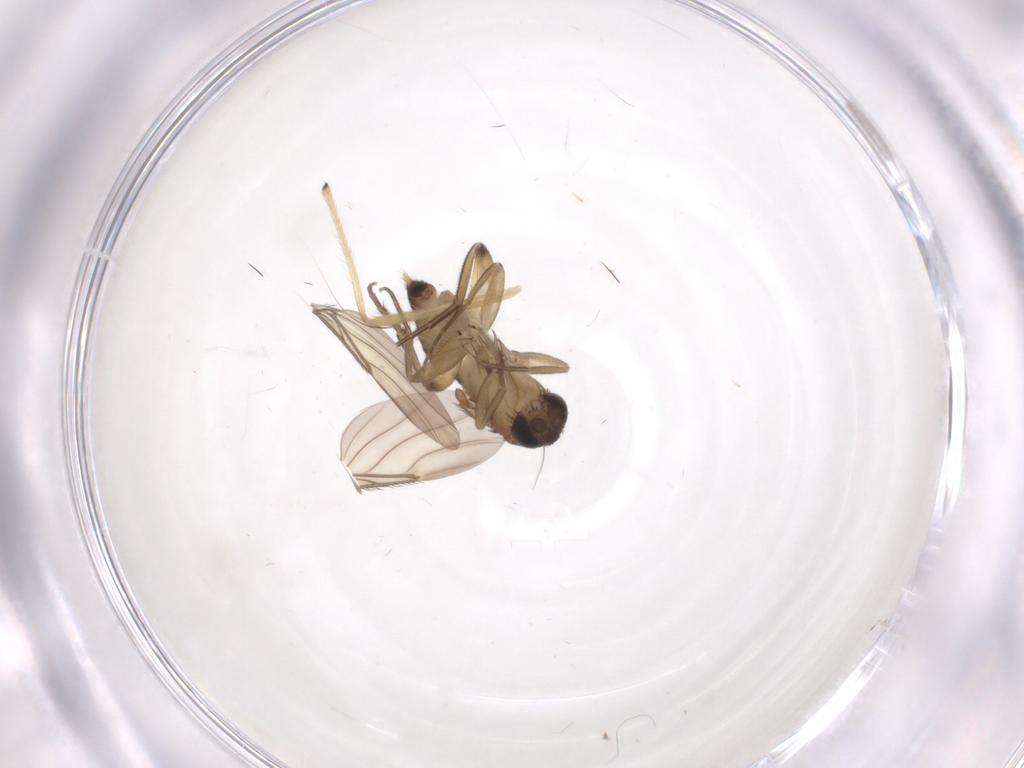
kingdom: Animalia
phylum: Arthropoda
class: Insecta
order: Diptera
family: Phoridae
